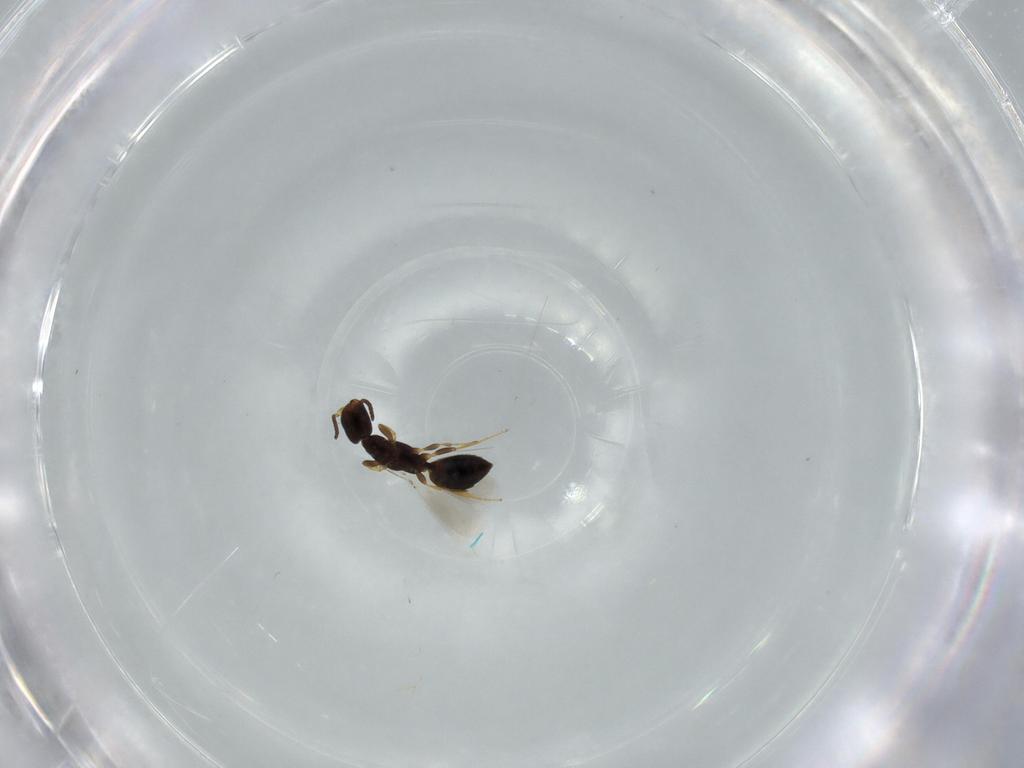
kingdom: Animalia
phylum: Arthropoda
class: Insecta
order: Hymenoptera
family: Bethylidae
